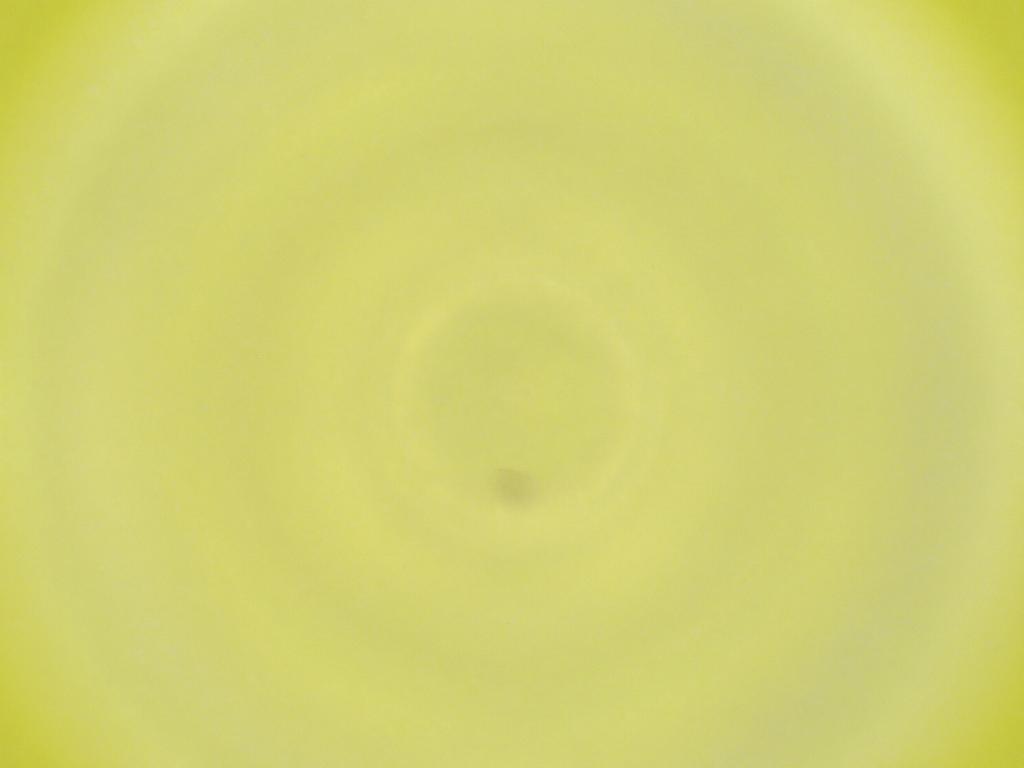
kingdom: Animalia
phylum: Arthropoda
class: Insecta
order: Diptera
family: Cecidomyiidae
